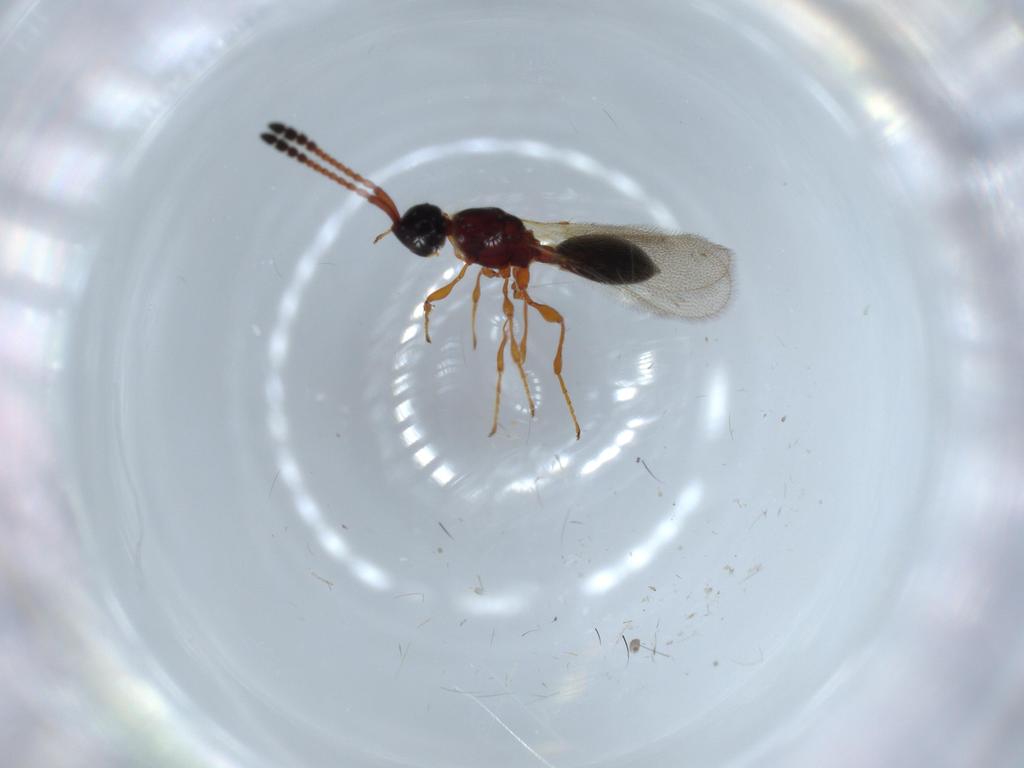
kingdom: Animalia
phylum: Arthropoda
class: Insecta
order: Hymenoptera
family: Diapriidae
